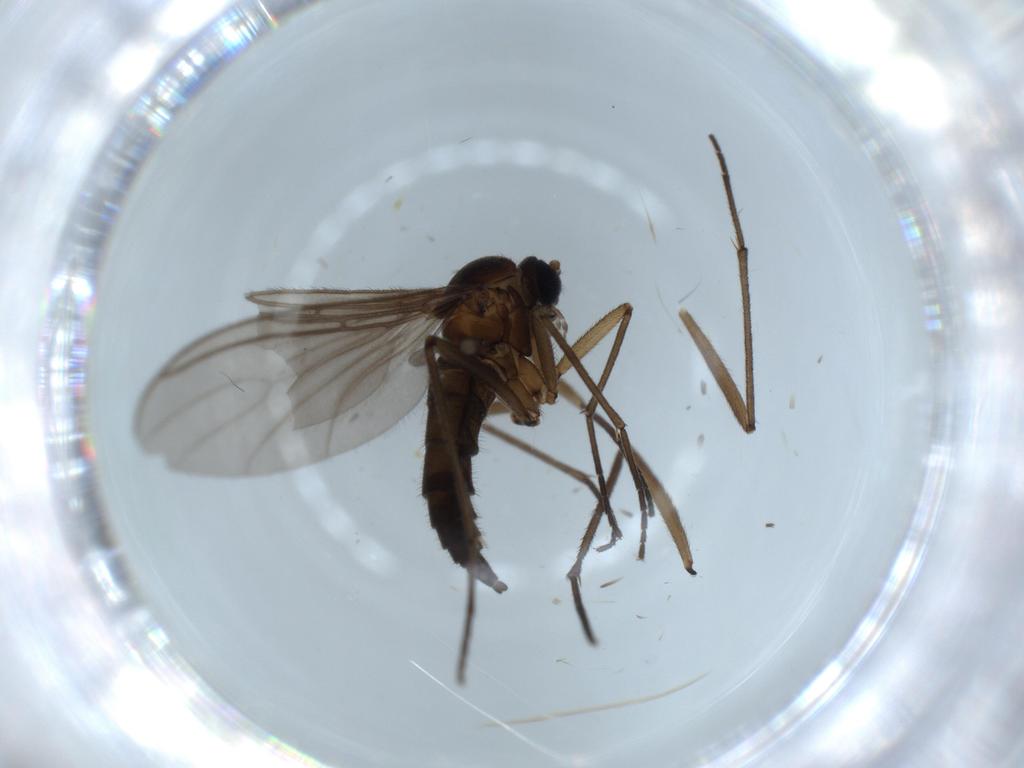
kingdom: Animalia
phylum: Arthropoda
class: Insecta
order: Diptera
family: Sciaridae
